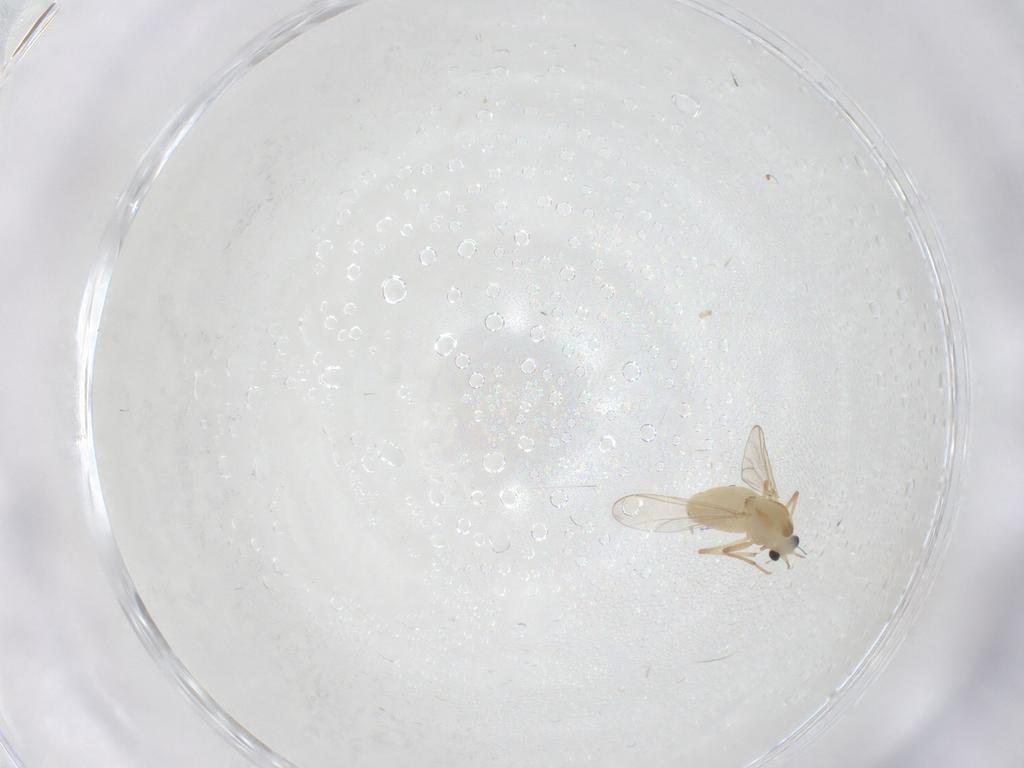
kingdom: Animalia
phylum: Arthropoda
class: Insecta
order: Diptera
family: Chironomidae
